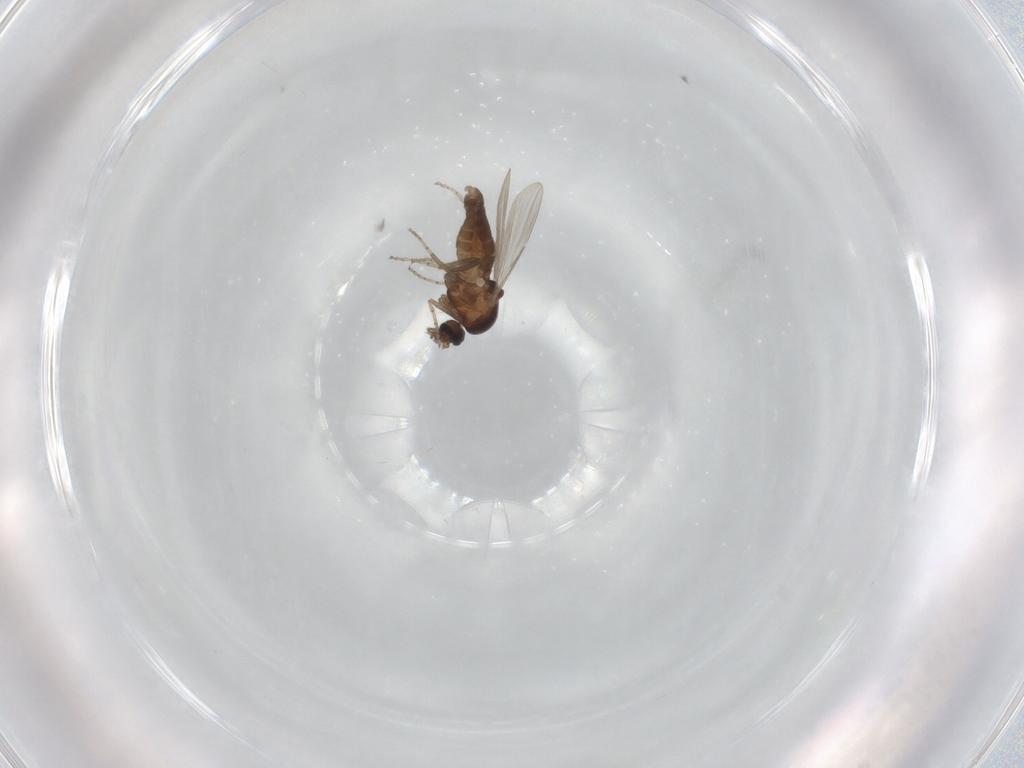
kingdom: Animalia
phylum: Arthropoda
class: Insecta
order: Diptera
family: Ceratopogonidae
